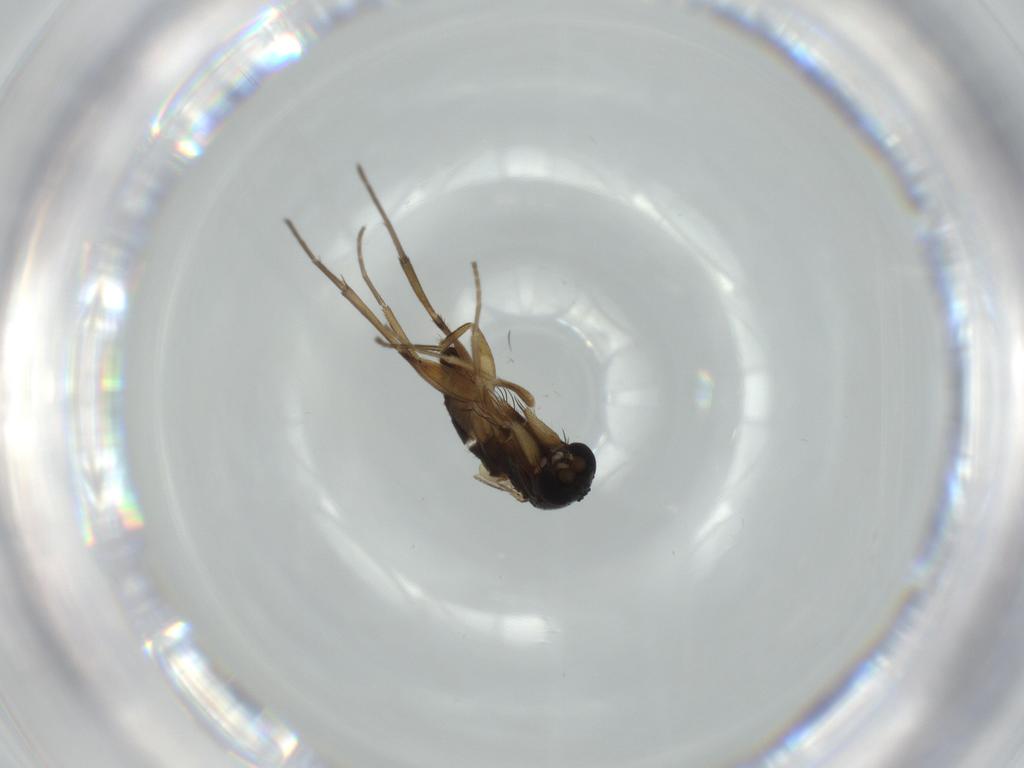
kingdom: Animalia
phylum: Arthropoda
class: Insecta
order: Diptera
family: Phoridae
